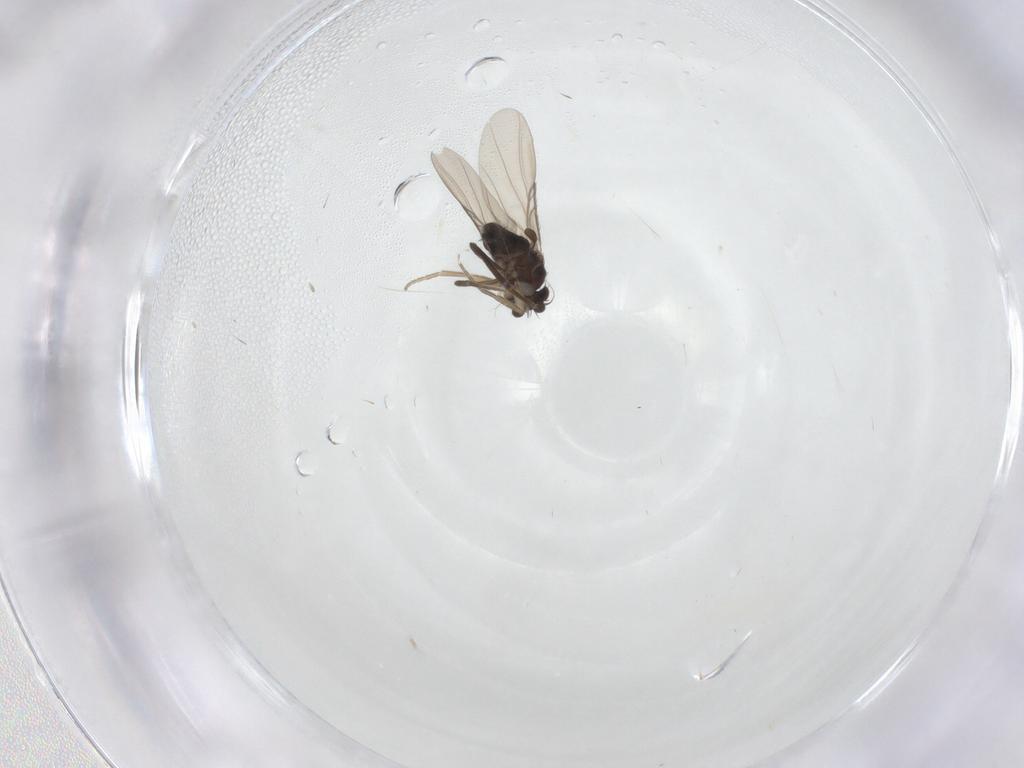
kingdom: Animalia
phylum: Arthropoda
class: Insecta
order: Diptera
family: Phoridae
